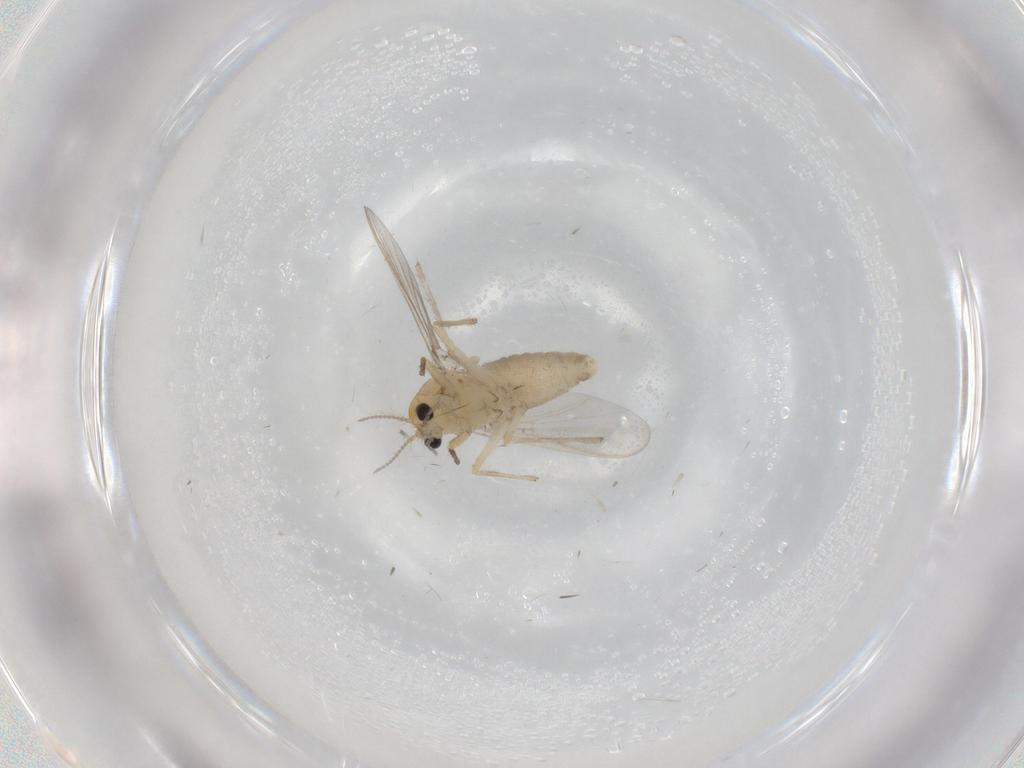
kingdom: Animalia
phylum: Arthropoda
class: Insecta
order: Diptera
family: Chironomidae
